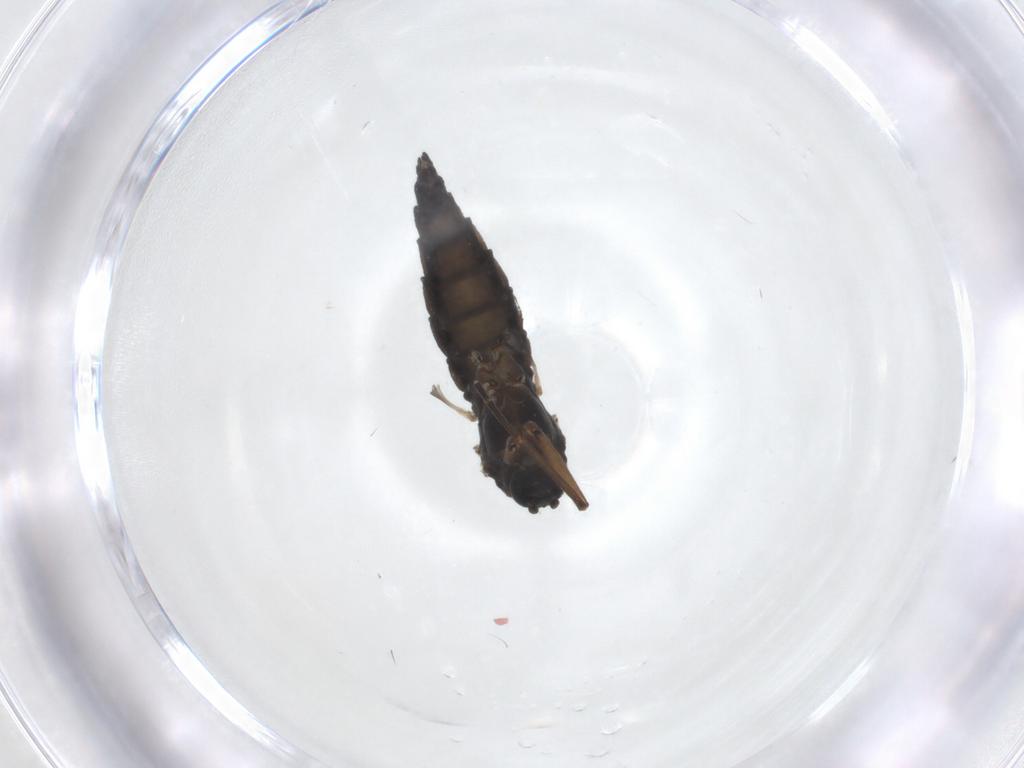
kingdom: Animalia
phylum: Arthropoda
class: Insecta
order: Diptera
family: Sciaridae
